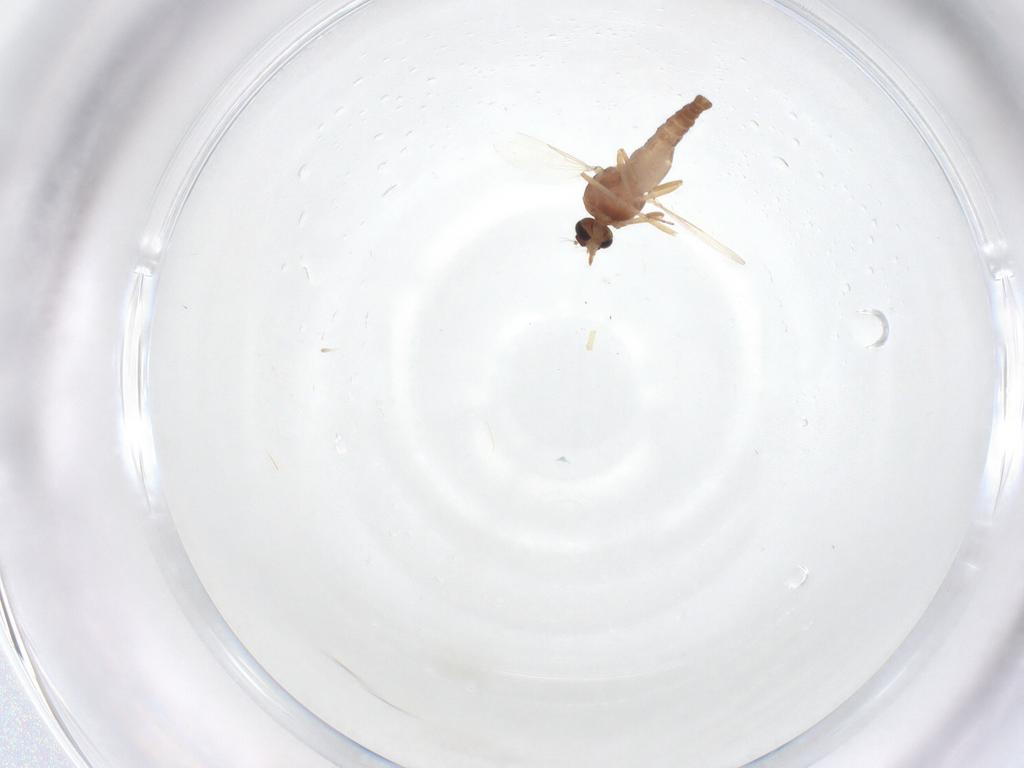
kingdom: Animalia
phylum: Arthropoda
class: Insecta
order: Diptera
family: Ceratopogonidae
